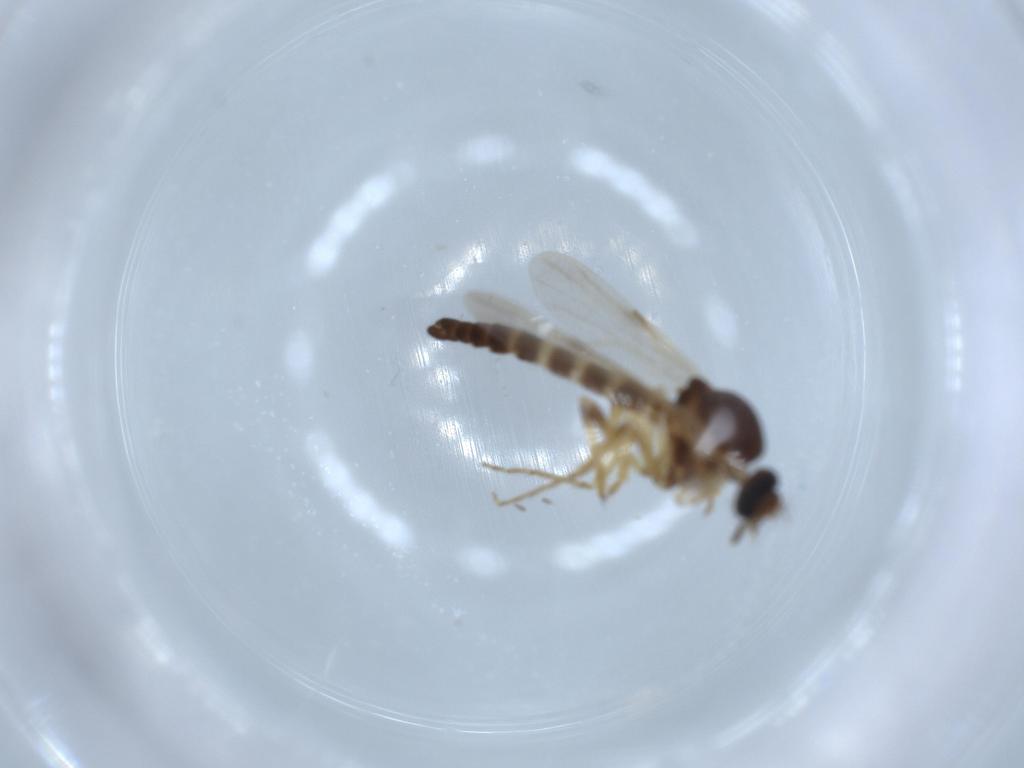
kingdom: Animalia
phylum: Arthropoda
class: Insecta
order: Diptera
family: Ceratopogonidae
